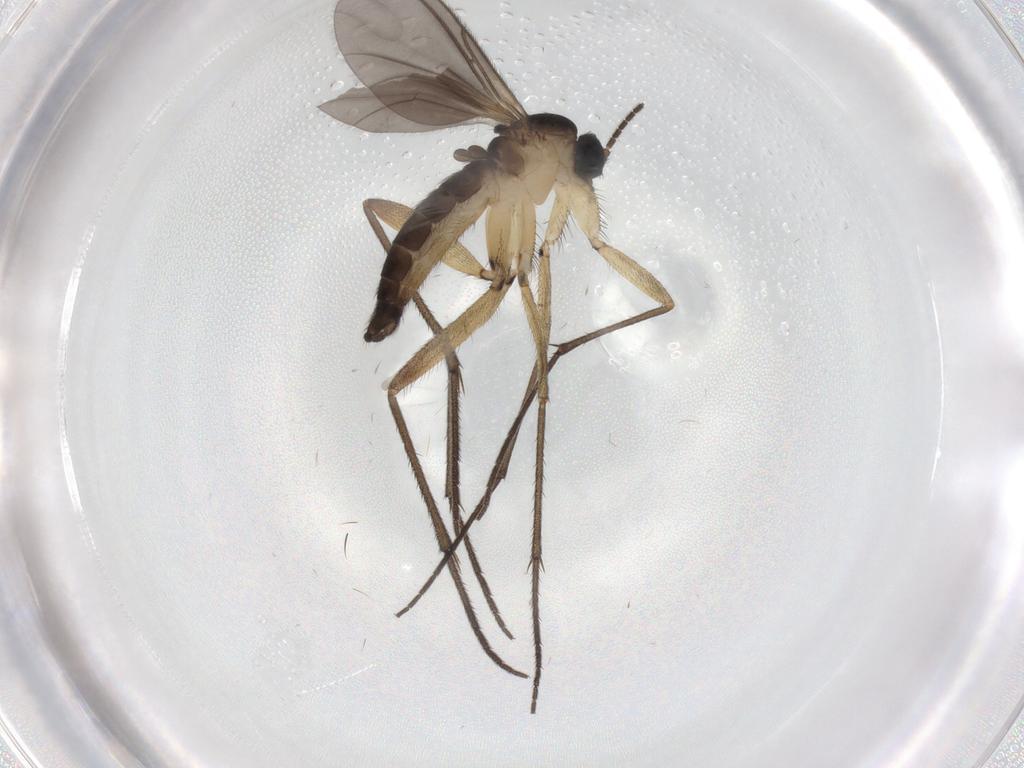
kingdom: Animalia
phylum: Arthropoda
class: Insecta
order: Diptera
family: Sciaridae
